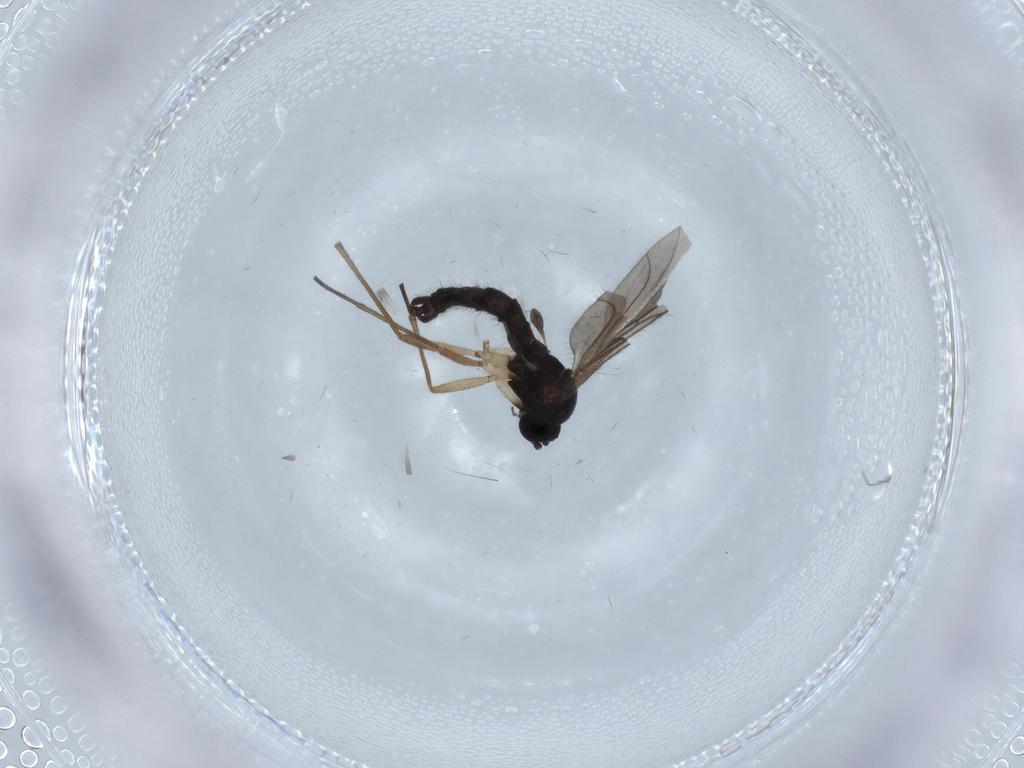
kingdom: Animalia
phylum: Arthropoda
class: Insecta
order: Diptera
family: Sciaridae
